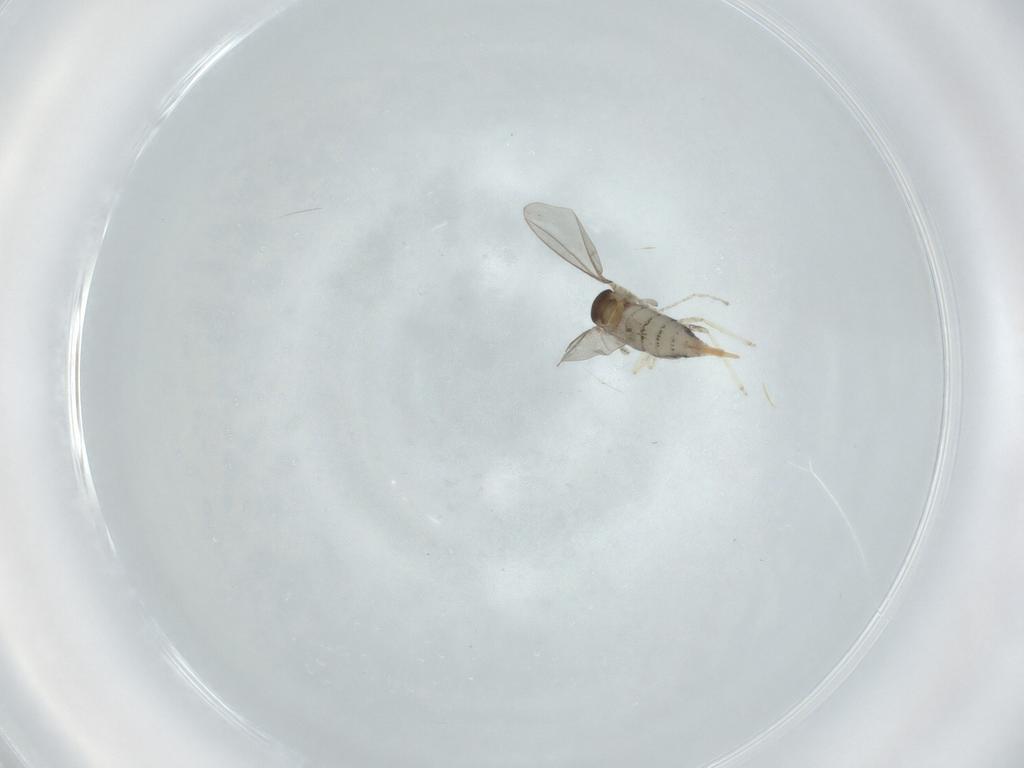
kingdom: Animalia
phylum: Arthropoda
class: Insecta
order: Diptera
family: Cecidomyiidae
